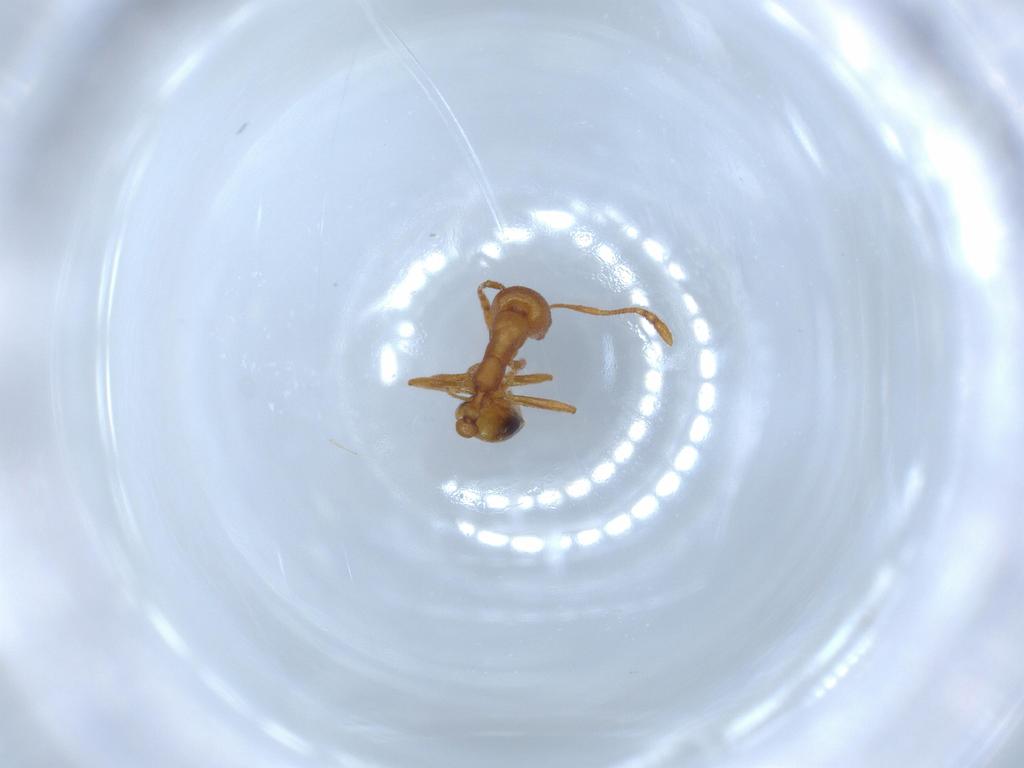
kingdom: Animalia
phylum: Arthropoda
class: Insecta
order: Hymenoptera
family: Formicidae
